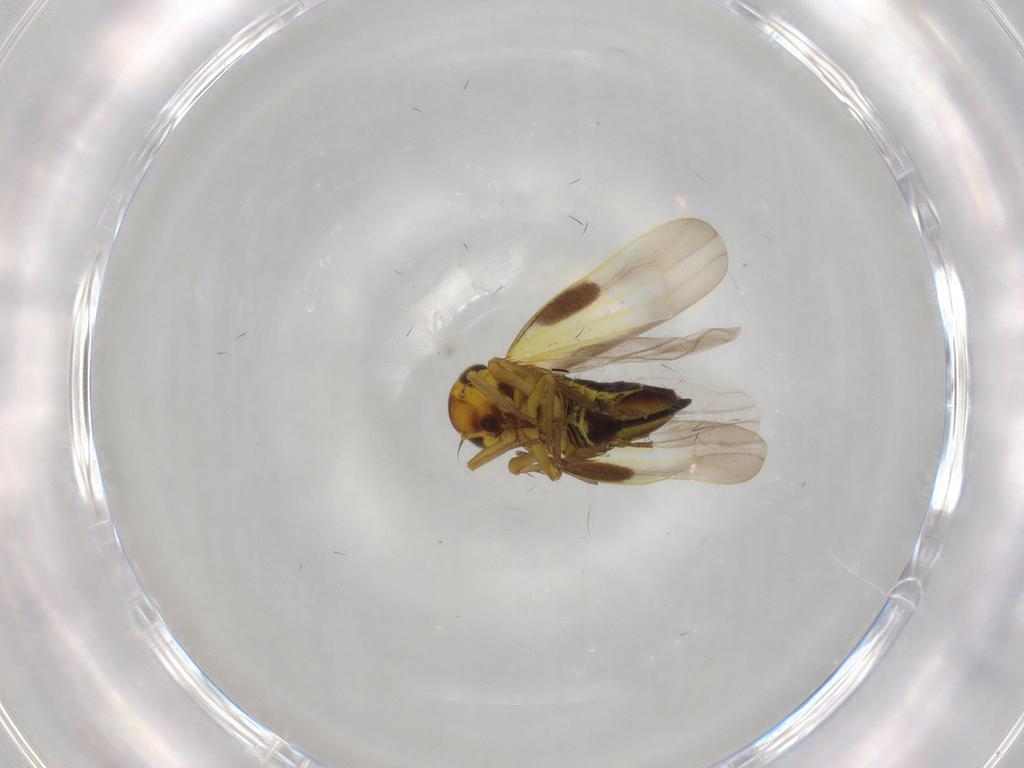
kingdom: Animalia
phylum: Arthropoda
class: Insecta
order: Hemiptera
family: Cicadellidae
